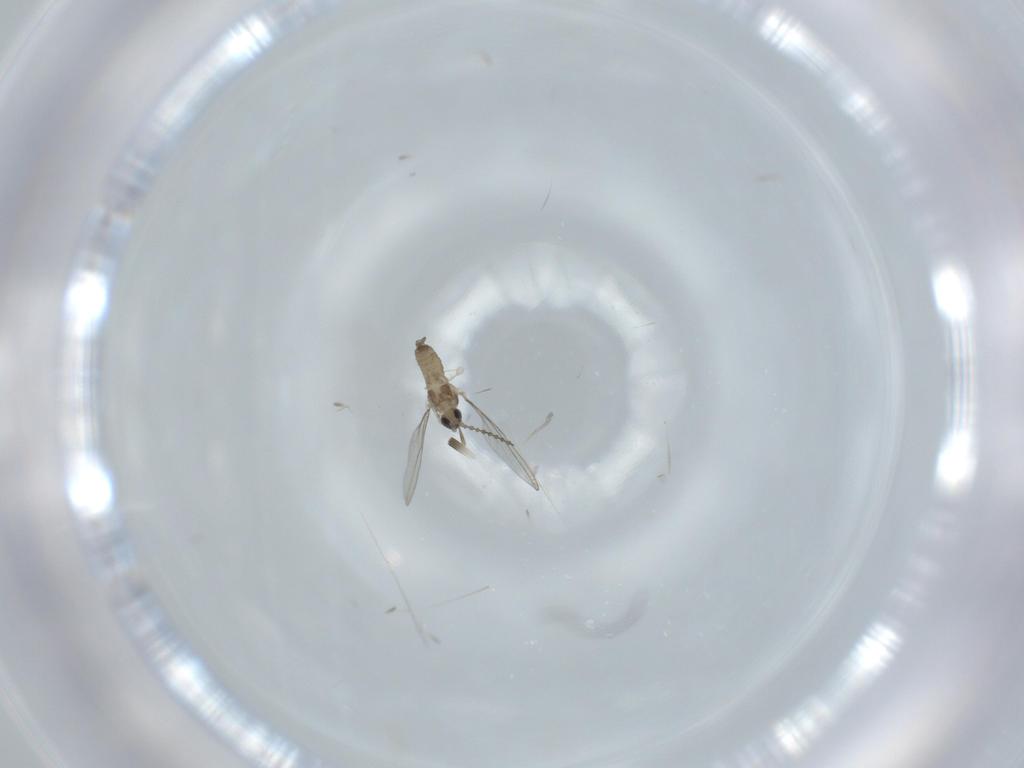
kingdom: Animalia
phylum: Arthropoda
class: Insecta
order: Diptera
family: Cecidomyiidae
